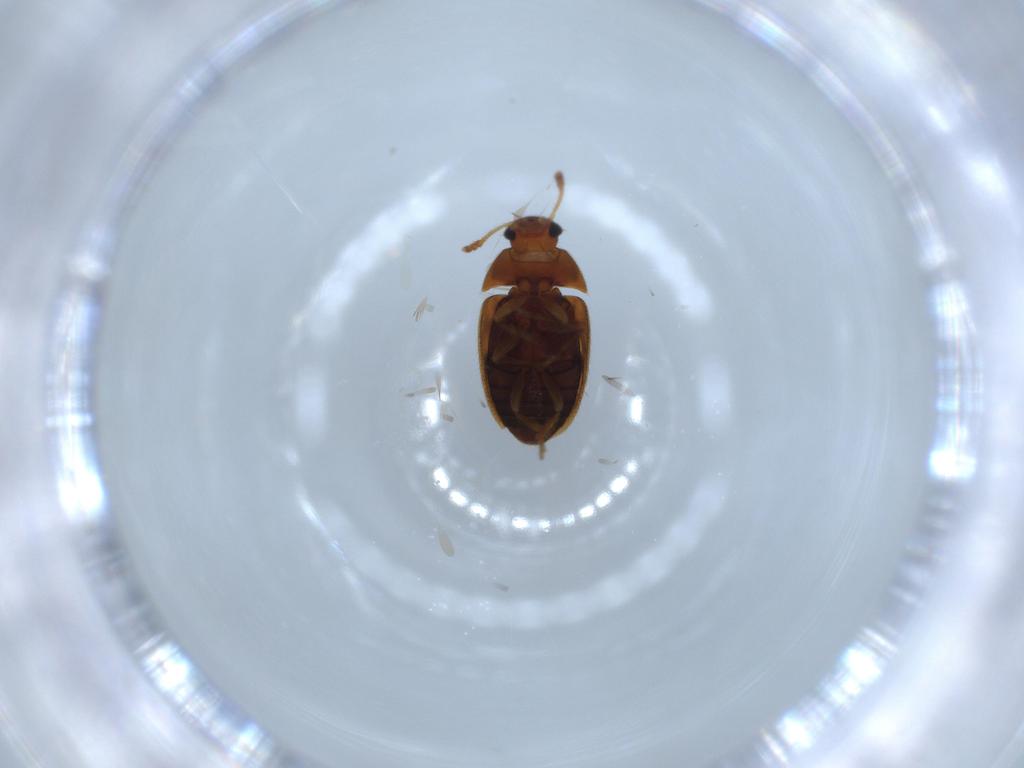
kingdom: Animalia
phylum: Arthropoda
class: Insecta
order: Coleoptera
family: Mycetophagidae
